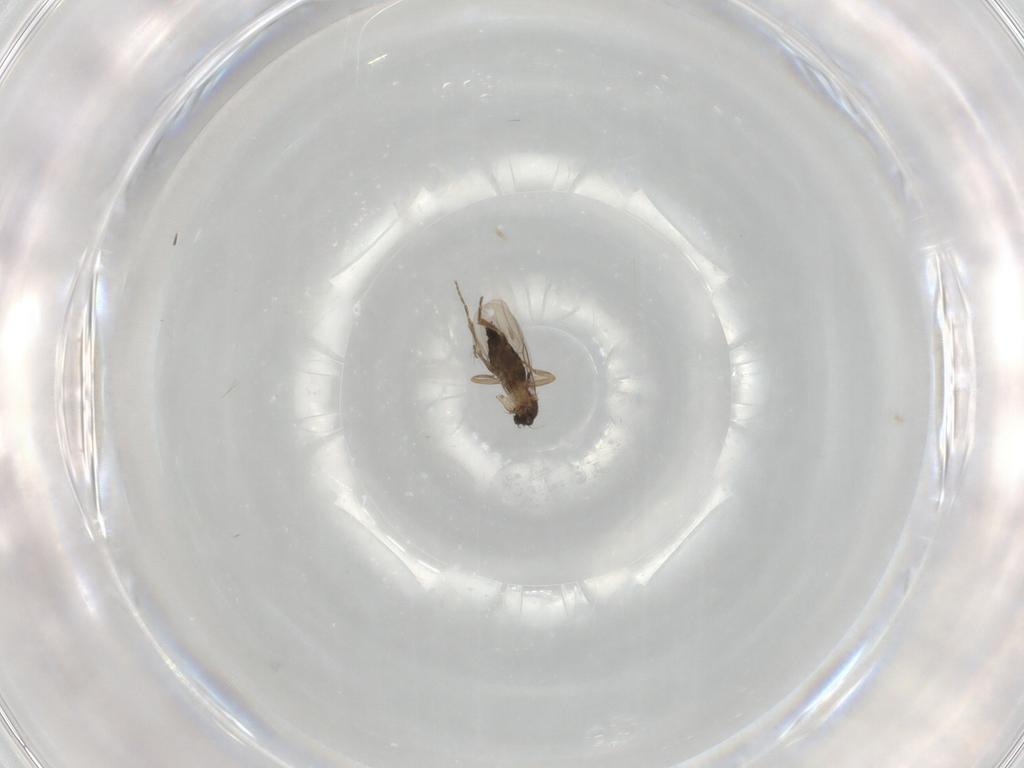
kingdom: Animalia
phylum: Arthropoda
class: Insecta
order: Diptera
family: Phoridae
